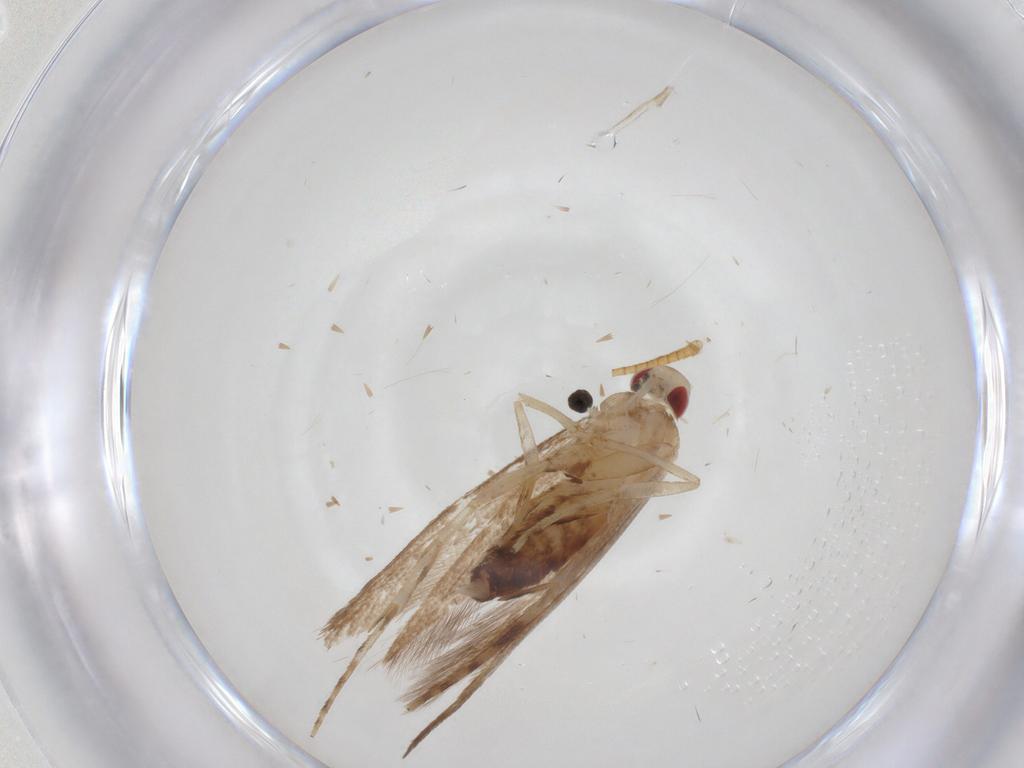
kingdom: Animalia
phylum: Arthropoda
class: Insecta
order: Lepidoptera
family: Cosmopterigidae
